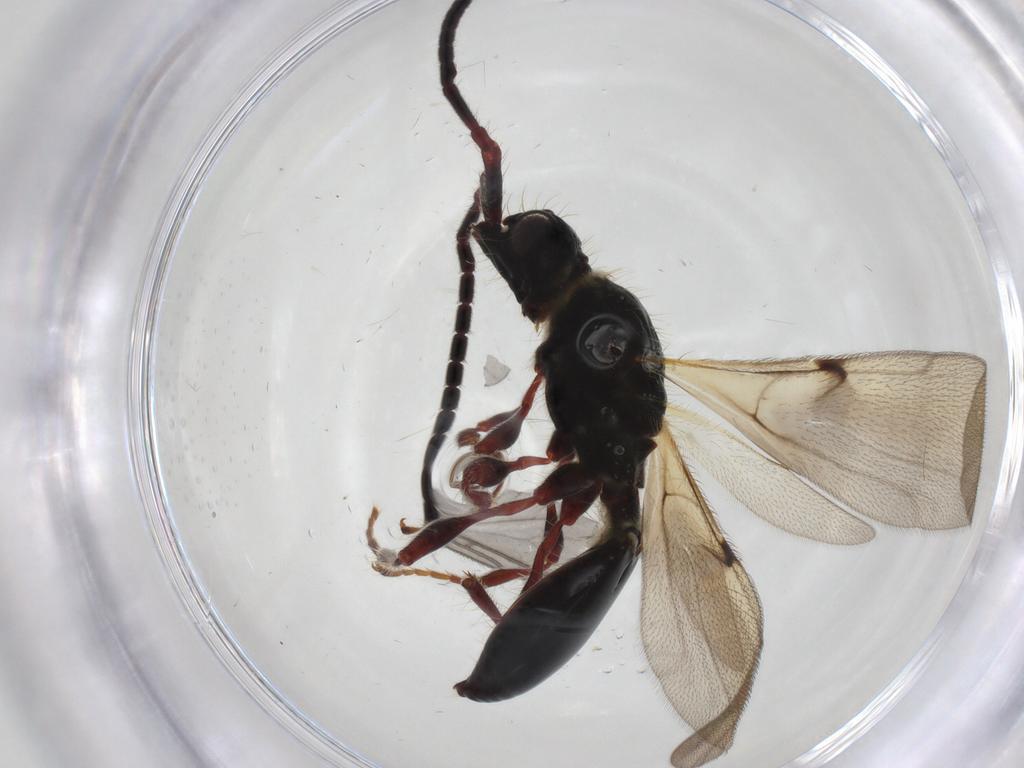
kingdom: Animalia
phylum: Arthropoda
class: Insecta
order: Hymenoptera
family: Diapriidae
